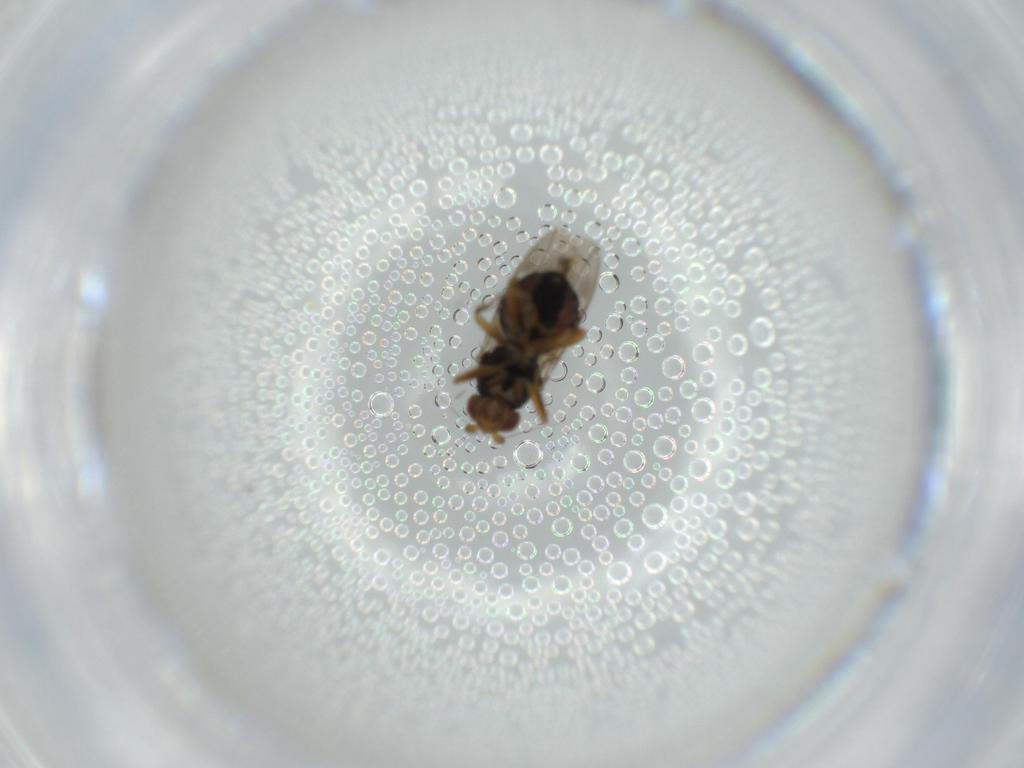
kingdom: Animalia
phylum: Arthropoda
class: Insecta
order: Diptera
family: Sphaeroceridae
